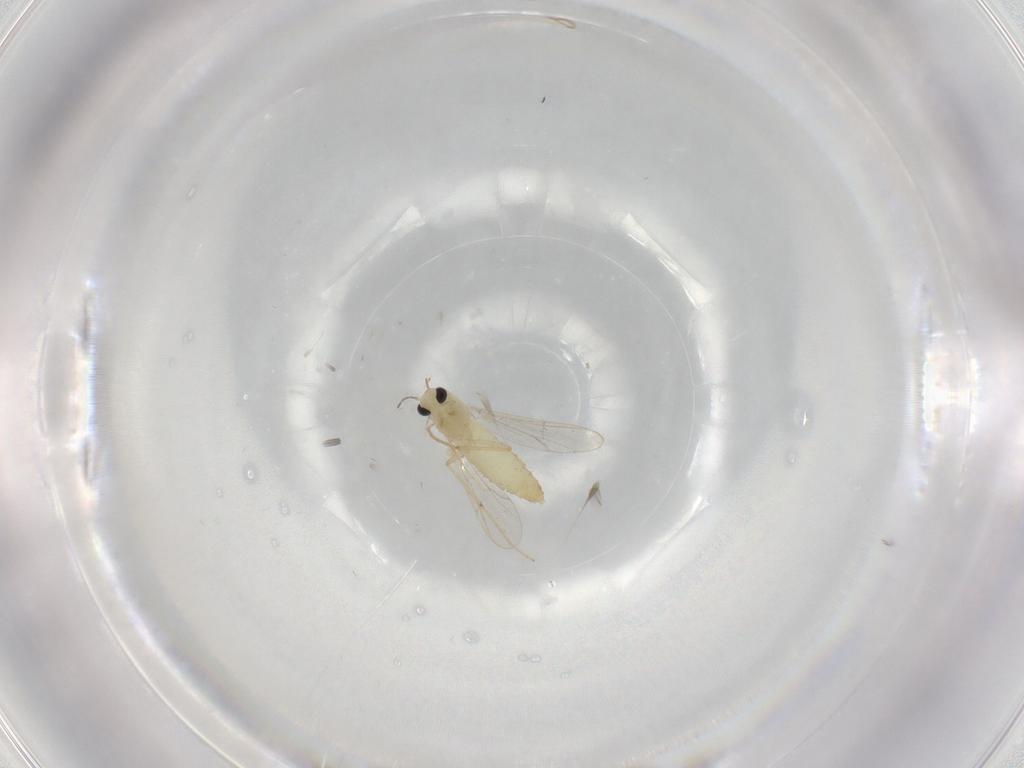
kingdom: Animalia
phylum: Arthropoda
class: Insecta
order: Diptera
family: Chironomidae
